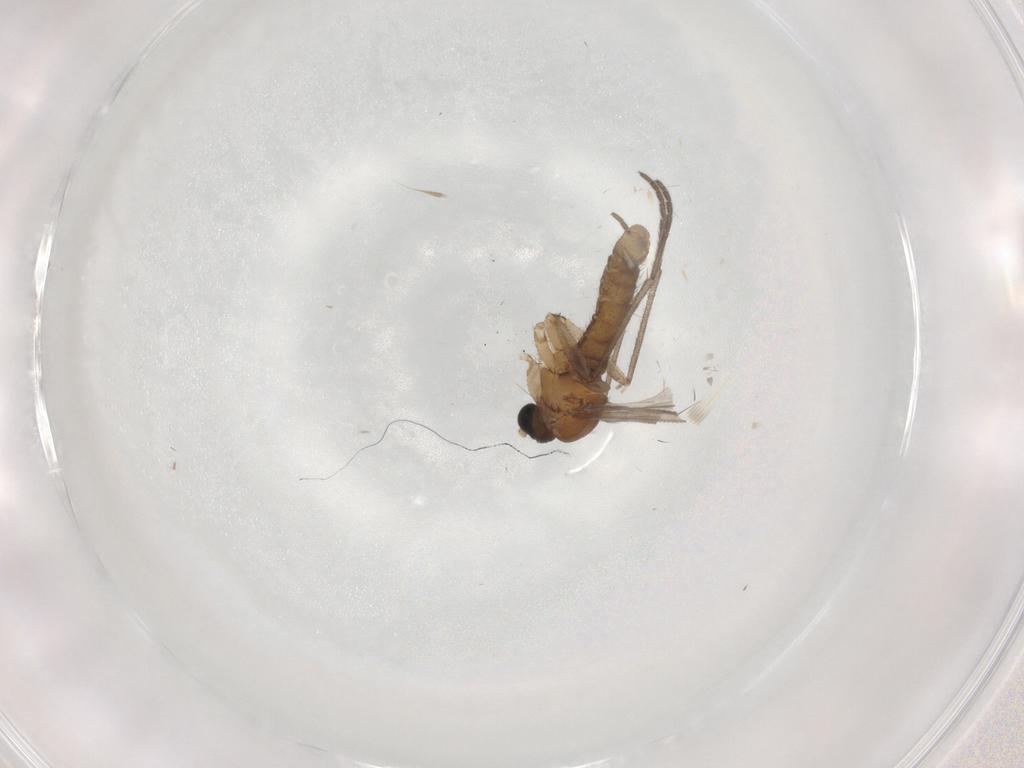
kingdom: Animalia
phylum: Arthropoda
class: Insecta
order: Diptera
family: Sciaridae
